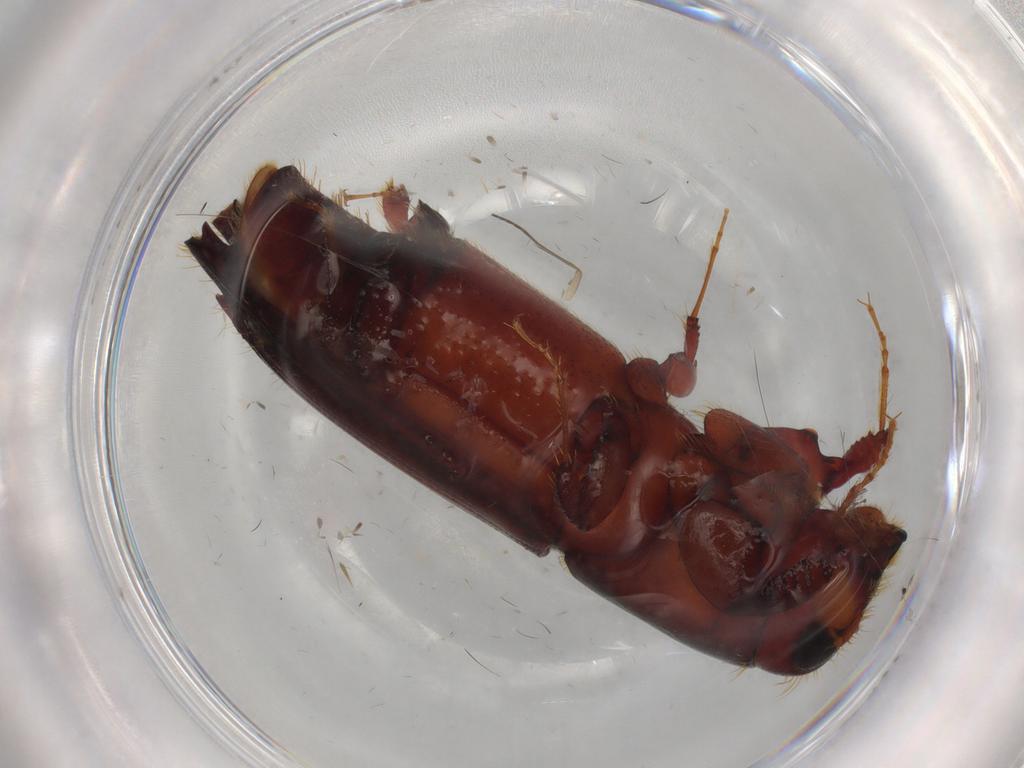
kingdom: Animalia
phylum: Arthropoda
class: Insecta
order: Coleoptera
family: Curculionidae
